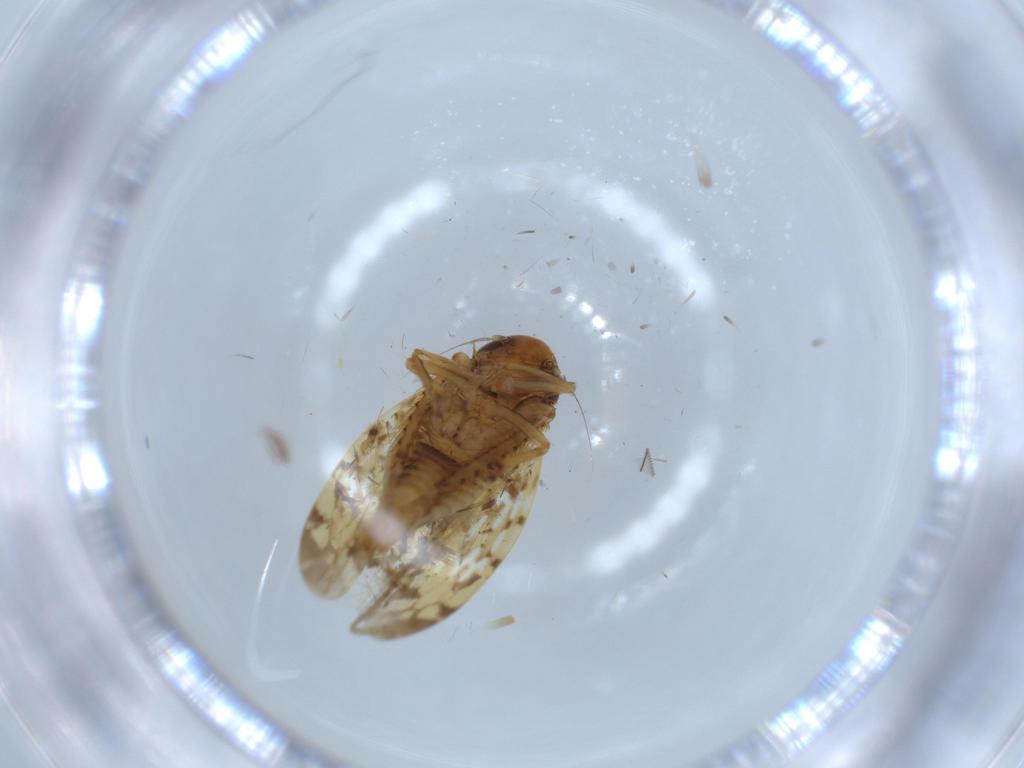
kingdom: Animalia
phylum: Arthropoda
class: Insecta
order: Hemiptera
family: Cicadellidae
